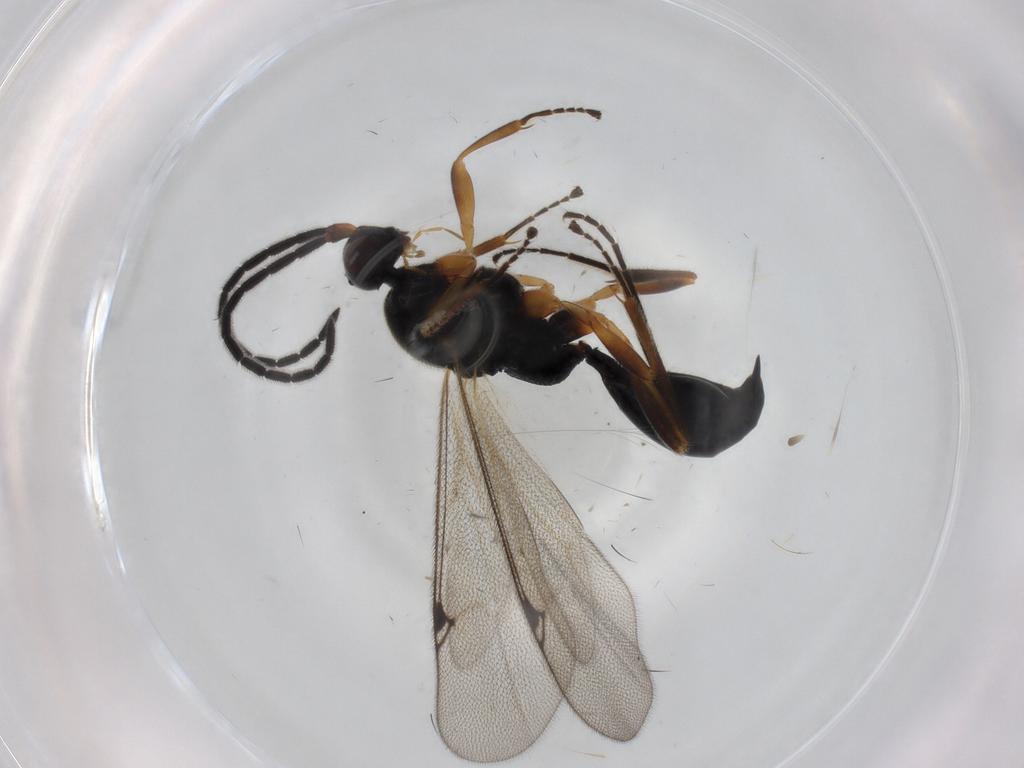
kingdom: Animalia
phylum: Arthropoda
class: Insecta
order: Hymenoptera
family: Proctotrupidae
